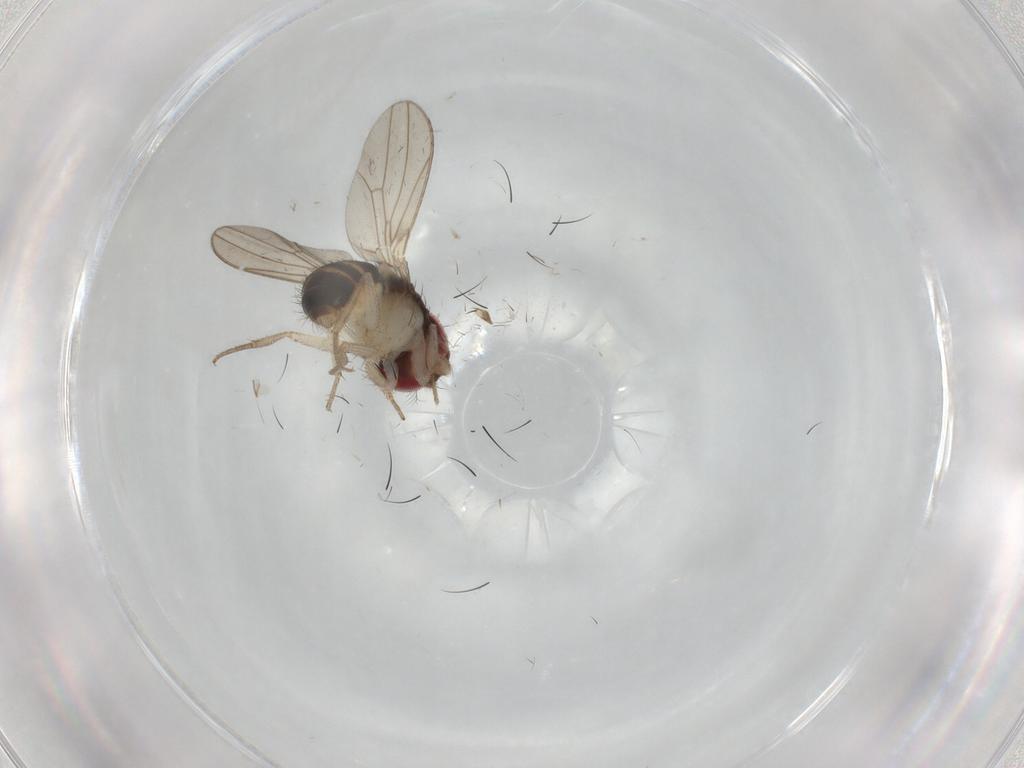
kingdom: Animalia
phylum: Arthropoda
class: Insecta
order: Diptera
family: Drosophilidae
